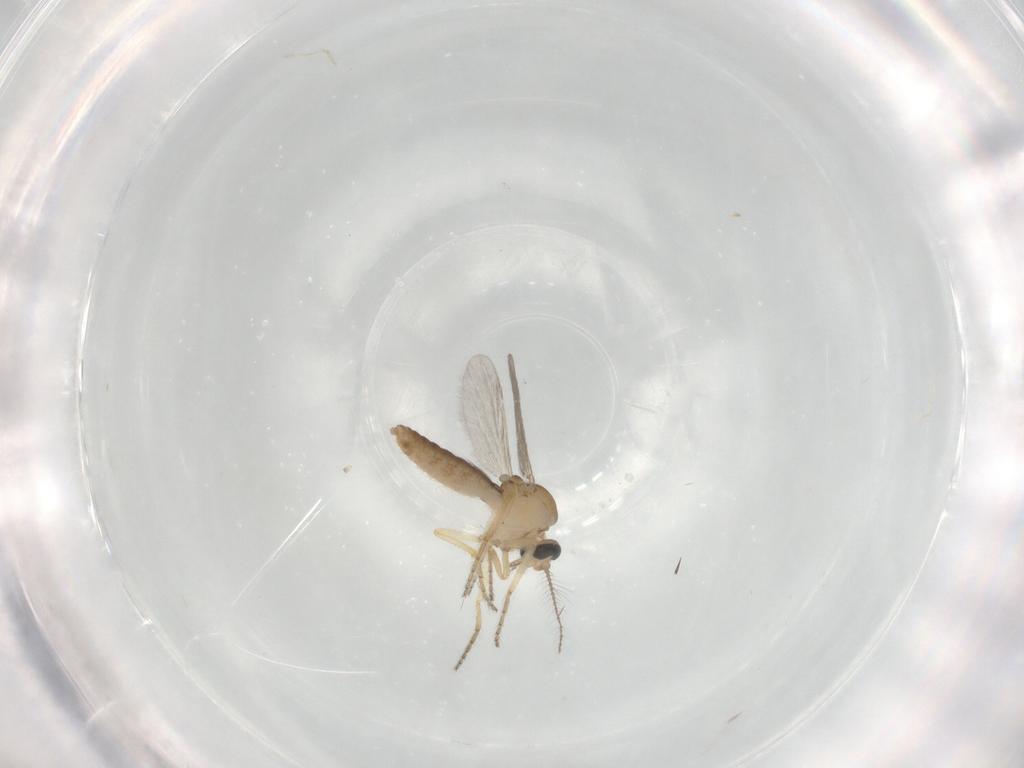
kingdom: Animalia
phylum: Arthropoda
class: Insecta
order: Diptera
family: Ceratopogonidae
